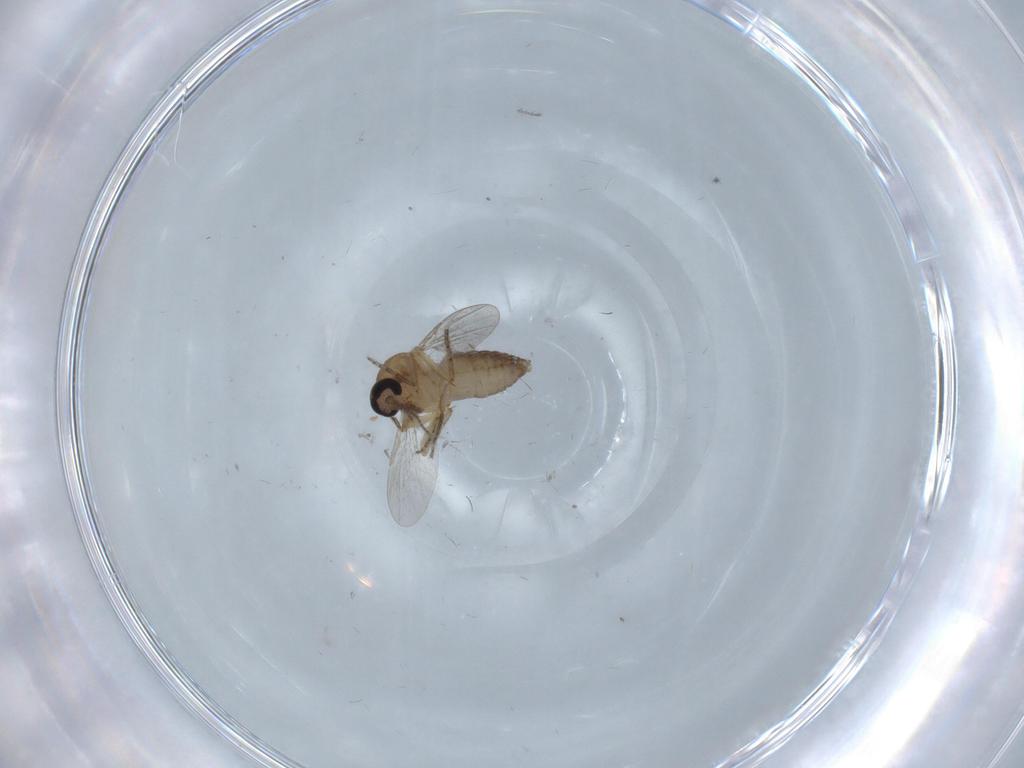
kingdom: Animalia
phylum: Arthropoda
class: Insecta
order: Diptera
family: Ceratopogonidae
